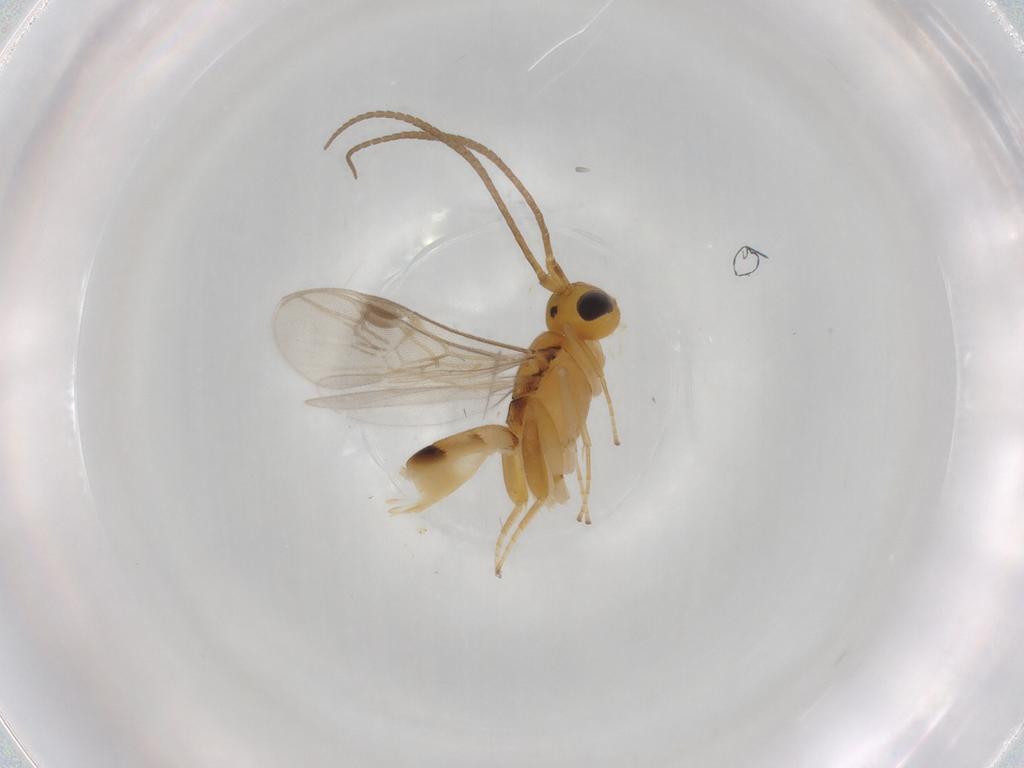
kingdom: Animalia
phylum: Arthropoda
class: Insecta
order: Hymenoptera
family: Braconidae
